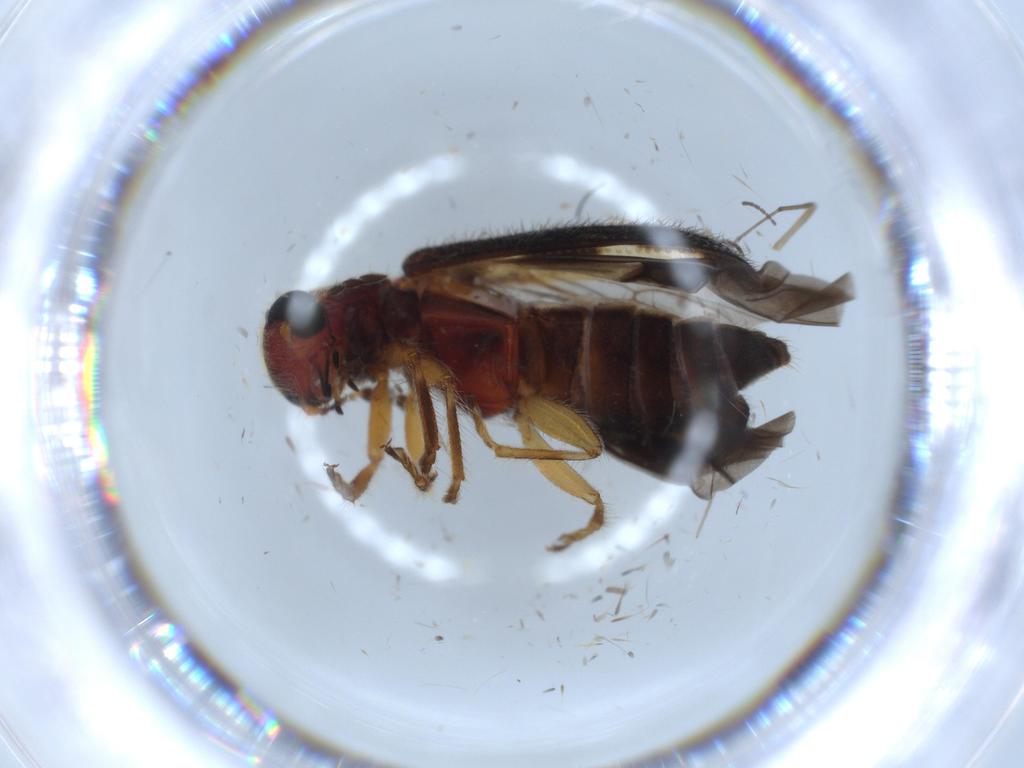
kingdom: Animalia
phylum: Arthropoda
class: Insecta
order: Coleoptera
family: Cleridae
